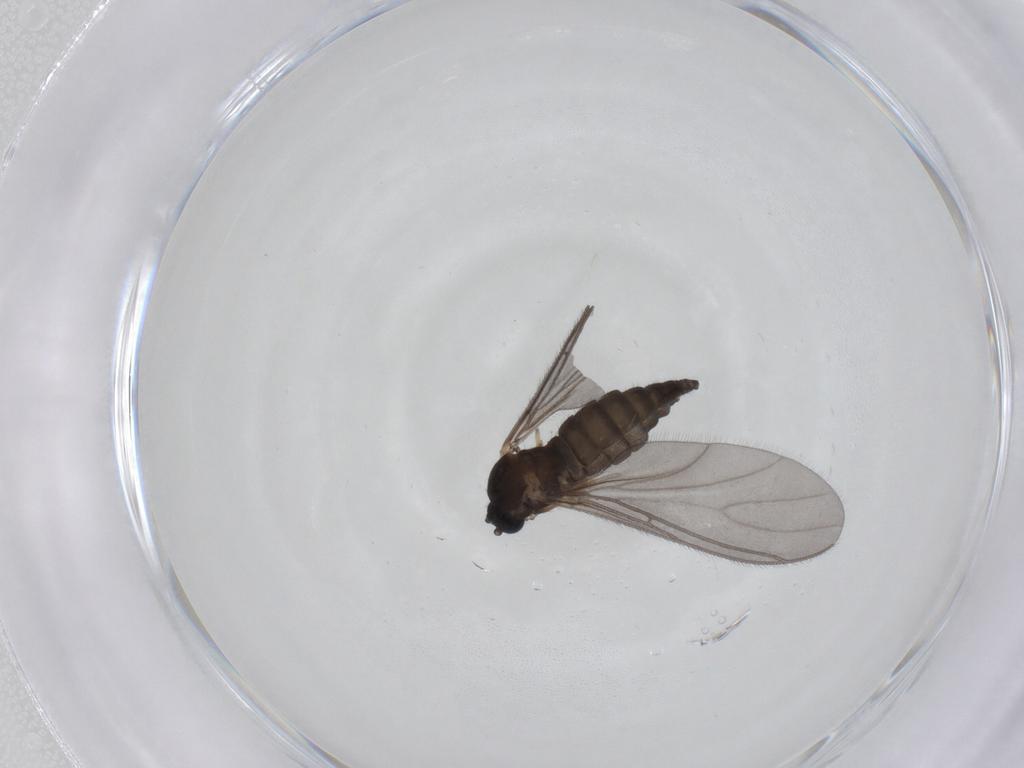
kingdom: Animalia
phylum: Arthropoda
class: Insecta
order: Diptera
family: Sciaridae
